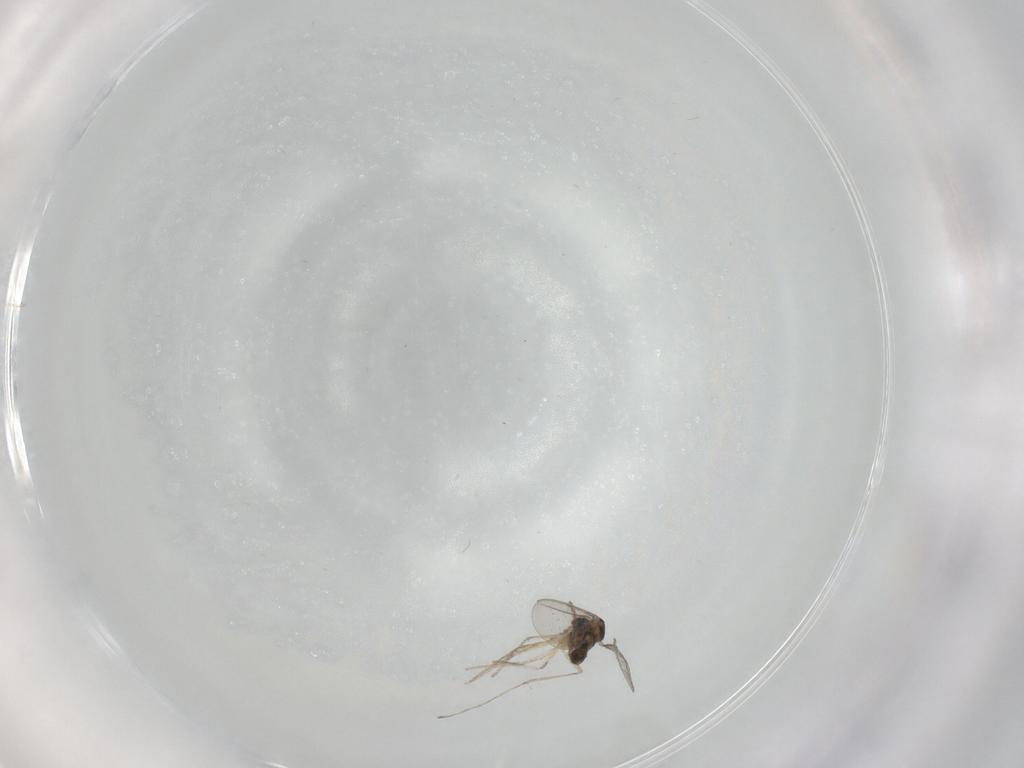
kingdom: Animalia
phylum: Arthropoda
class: Insecta
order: Diptera
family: Cecidomyiidae
